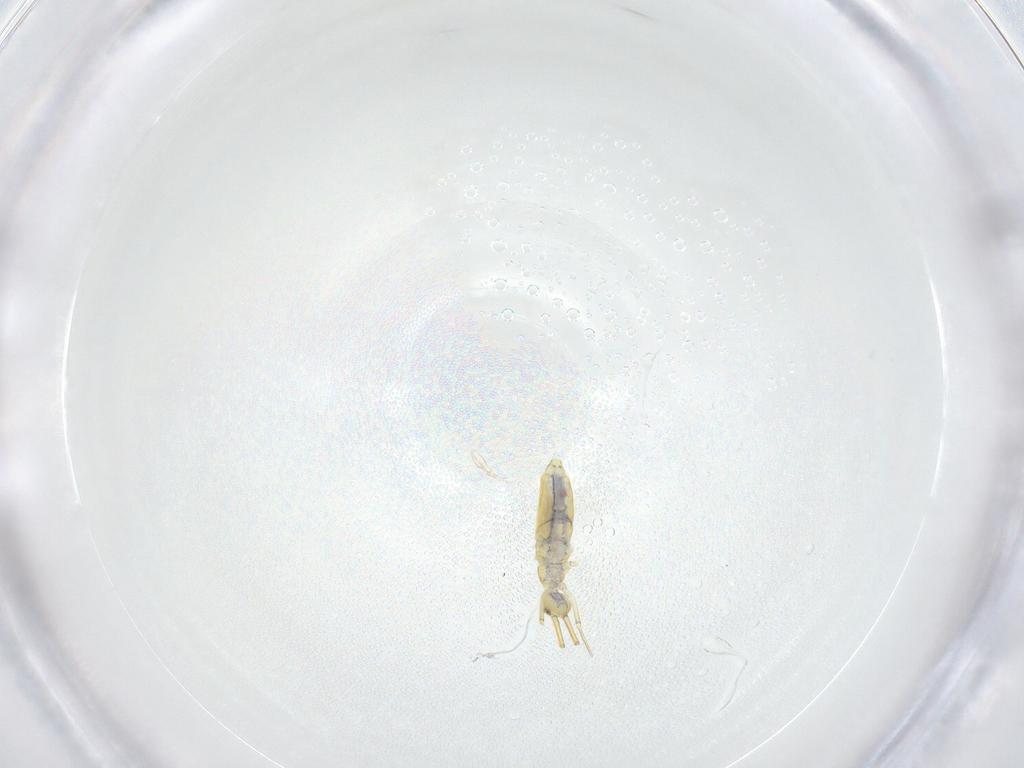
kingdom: Animalia
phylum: Arthropoda
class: Collembola
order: Entomobryomorpha
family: Entomobryidae
